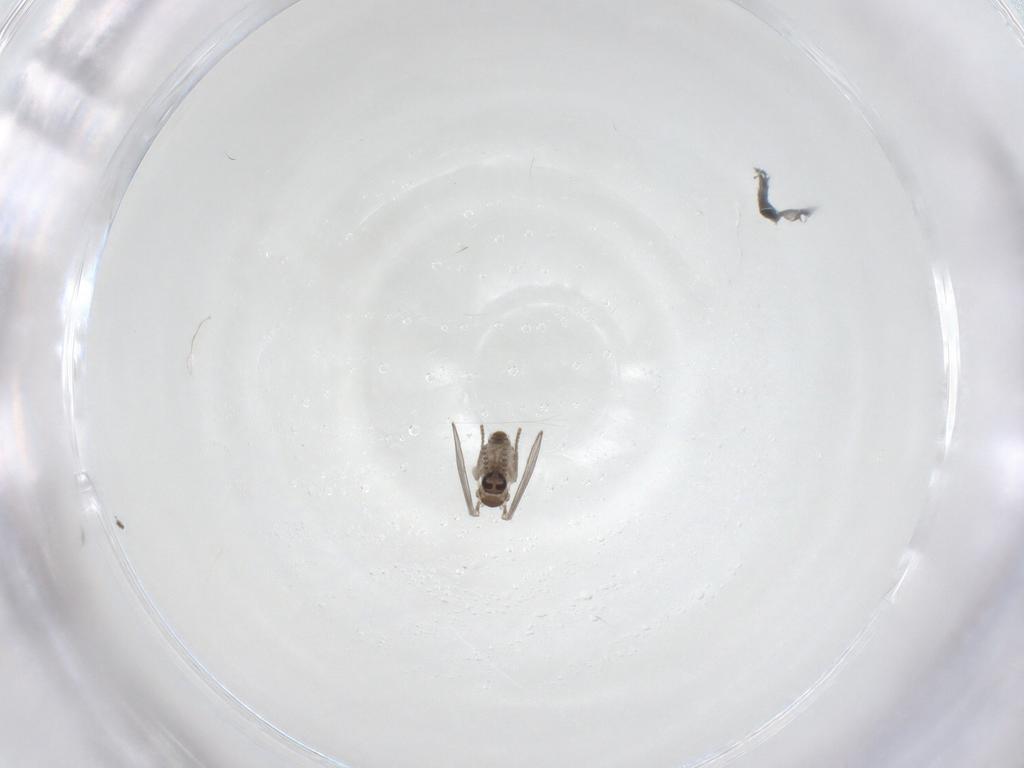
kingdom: Animalia
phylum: Arthropoda
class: Insecta
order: Diptera
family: Psychodidae
